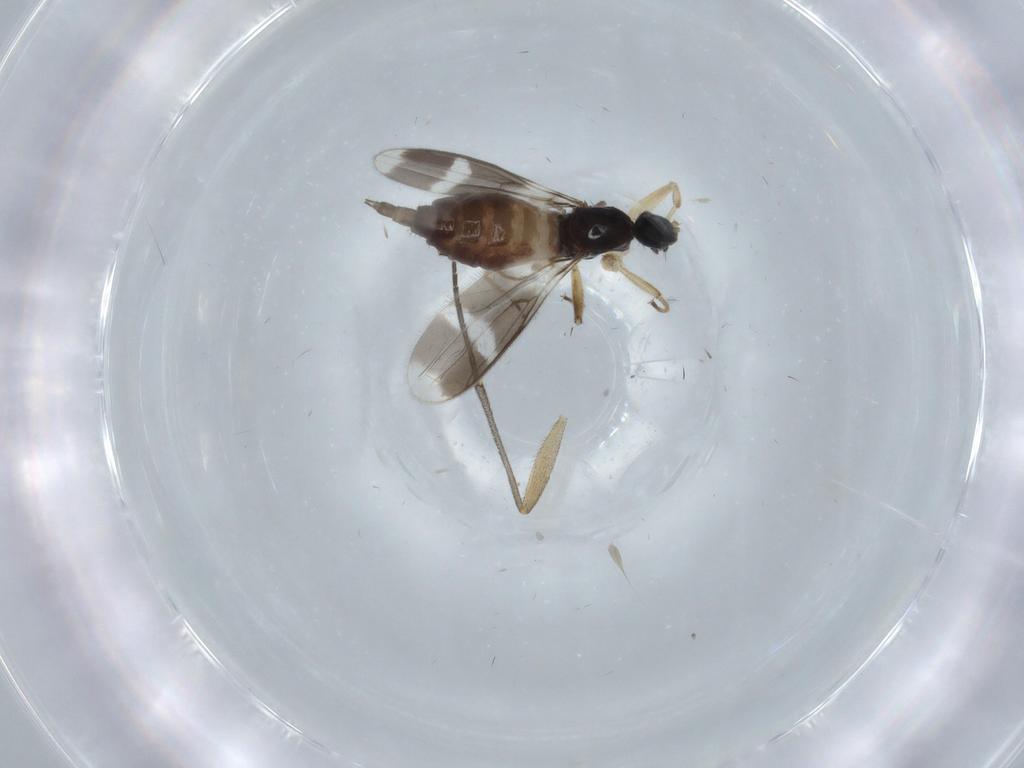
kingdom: Animalia
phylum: Arthropoda
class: Insecta
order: Diptera
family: Hybotidae
